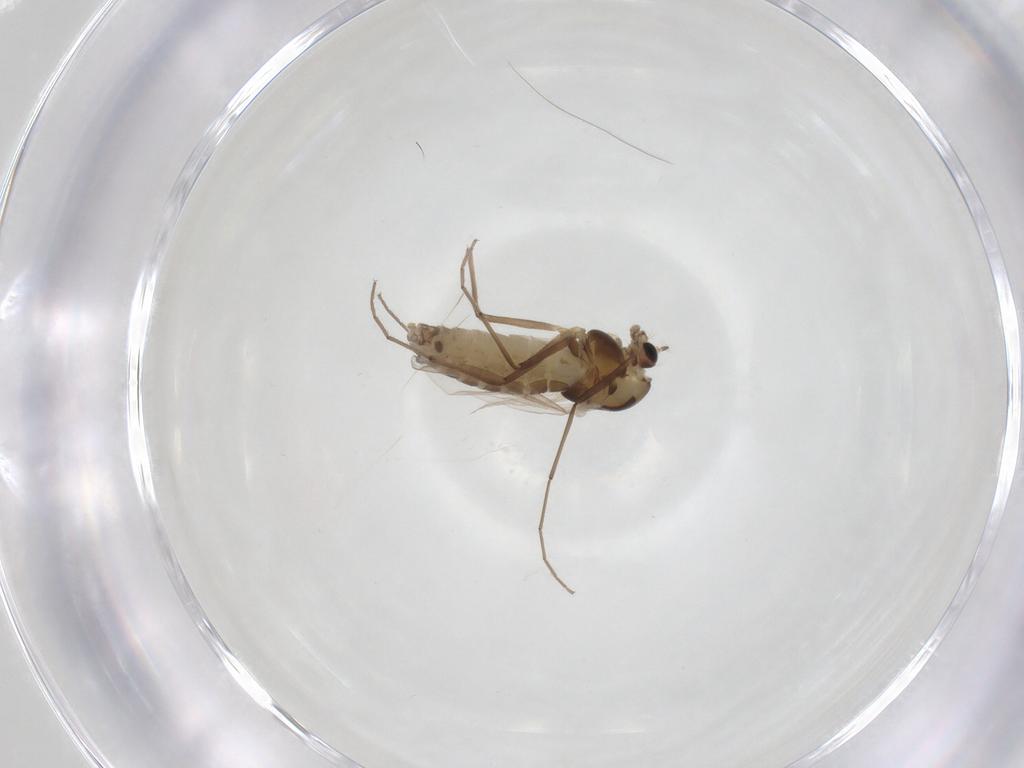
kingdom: Animalia
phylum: Arthropoda
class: Insecta
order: Diptera
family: Chironomidae
